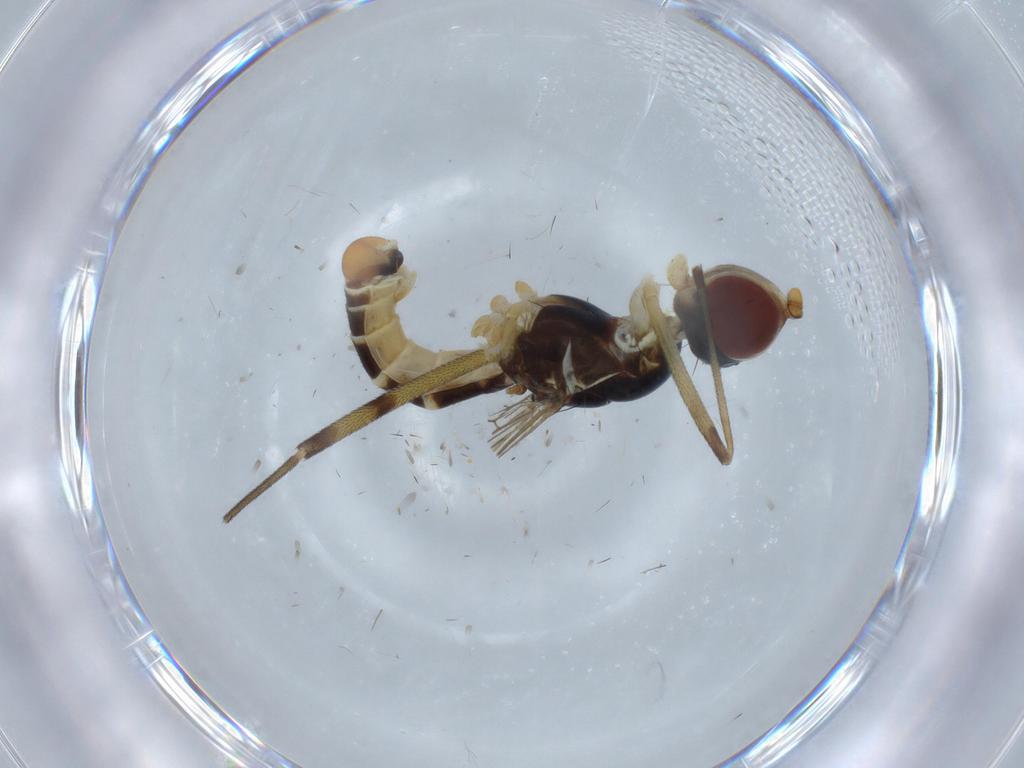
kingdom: Animalia
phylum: Arthropoda
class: Insecta
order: Diptera
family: Micropezidae
